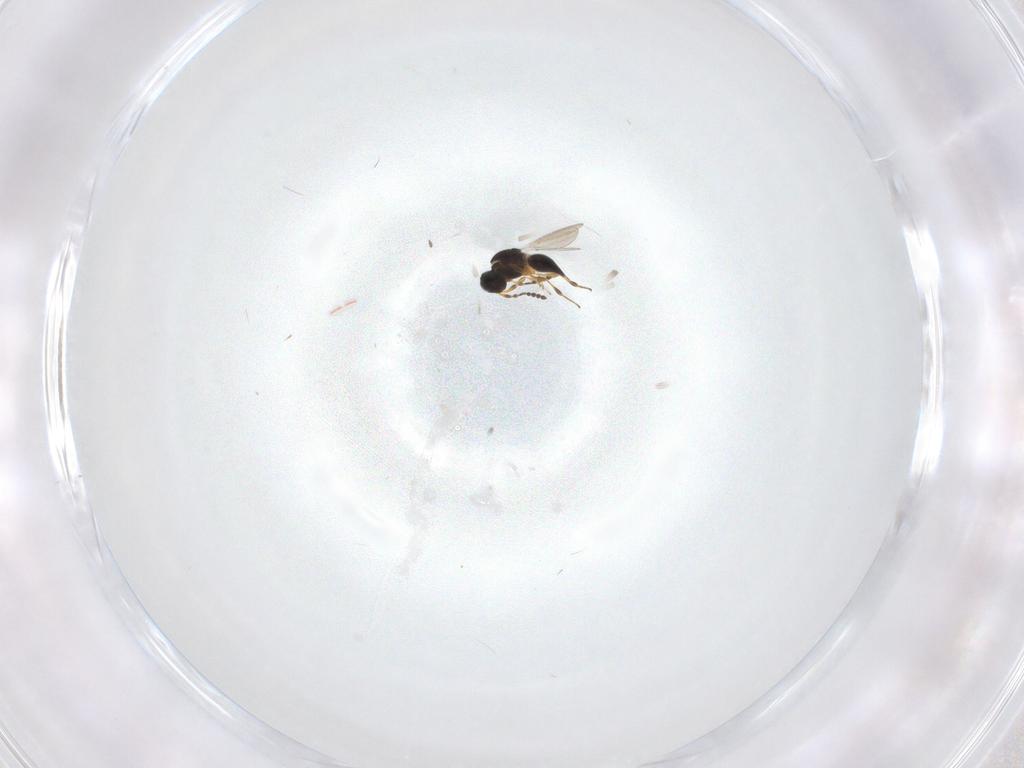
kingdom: Animalia
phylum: Arthropoda
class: Insecta
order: Hymenoptera
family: Platygastridae
